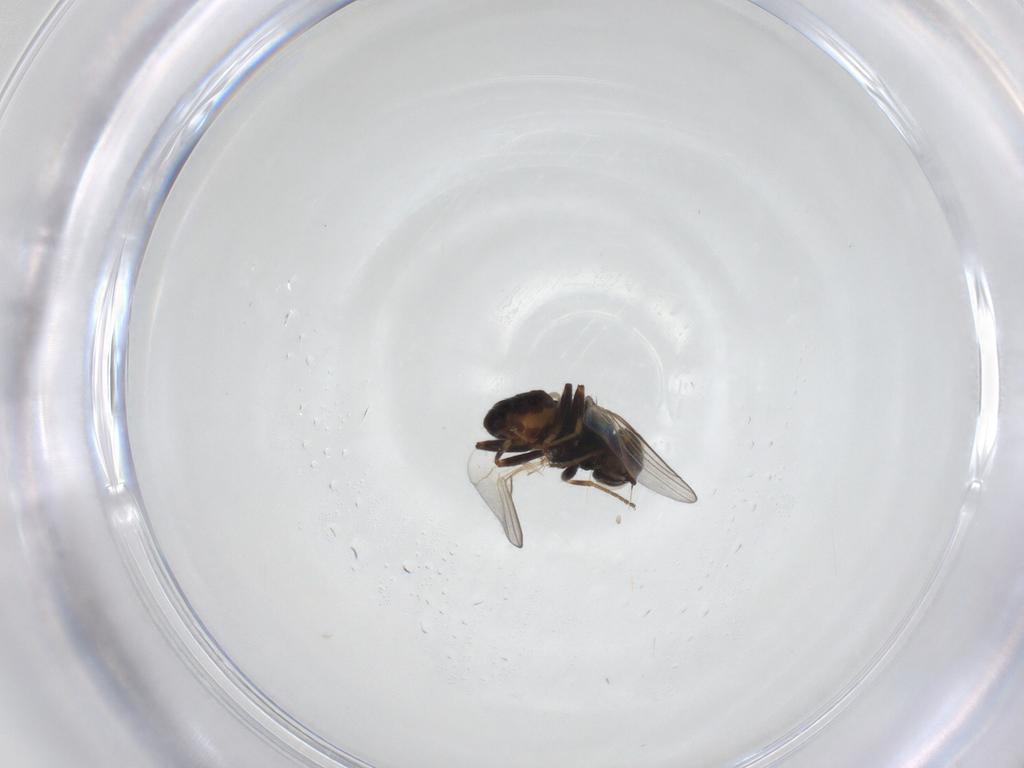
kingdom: Animalia
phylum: Arthropoda
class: Insecta
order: Diptera
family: Chloropidae
